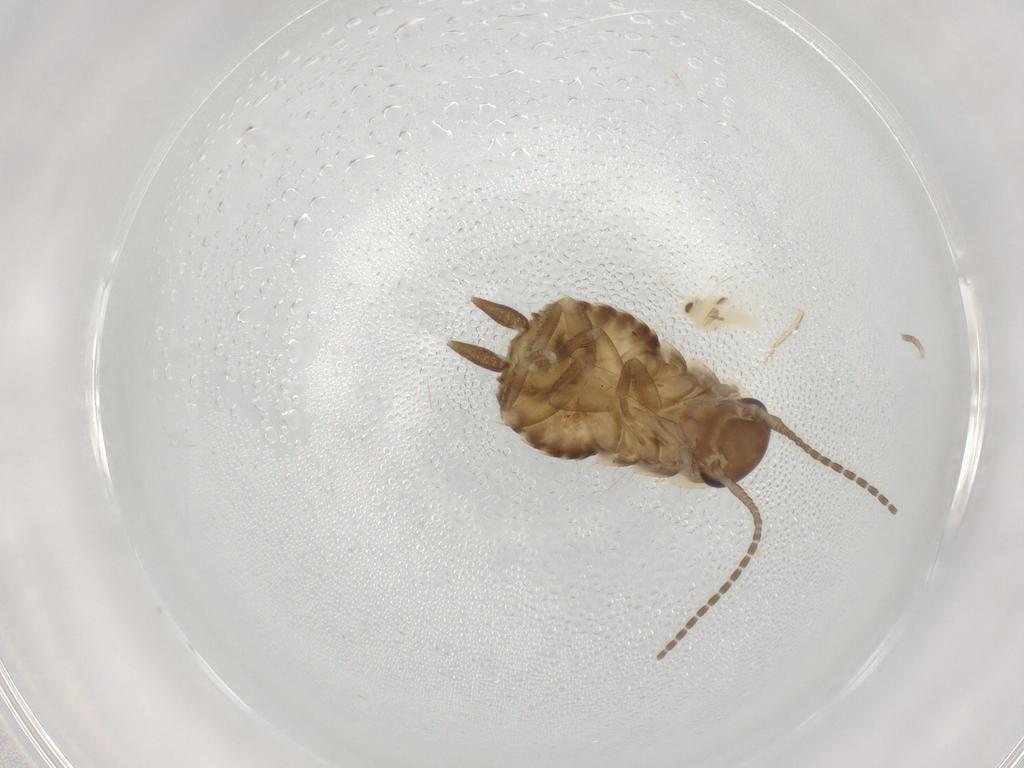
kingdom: Animalia
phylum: Arthropoda
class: Insecta
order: Blattodea
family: Ectobiidae
